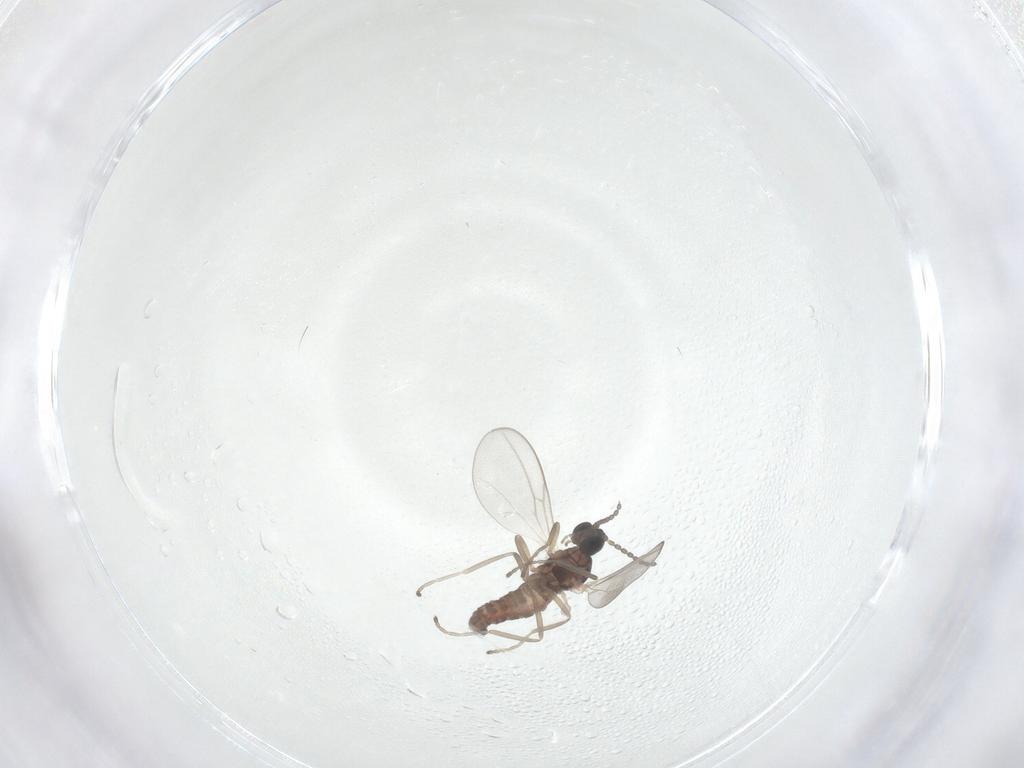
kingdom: Animalia
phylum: Arthropoda
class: Insecta
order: Diptera
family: Cecidomyiidae
